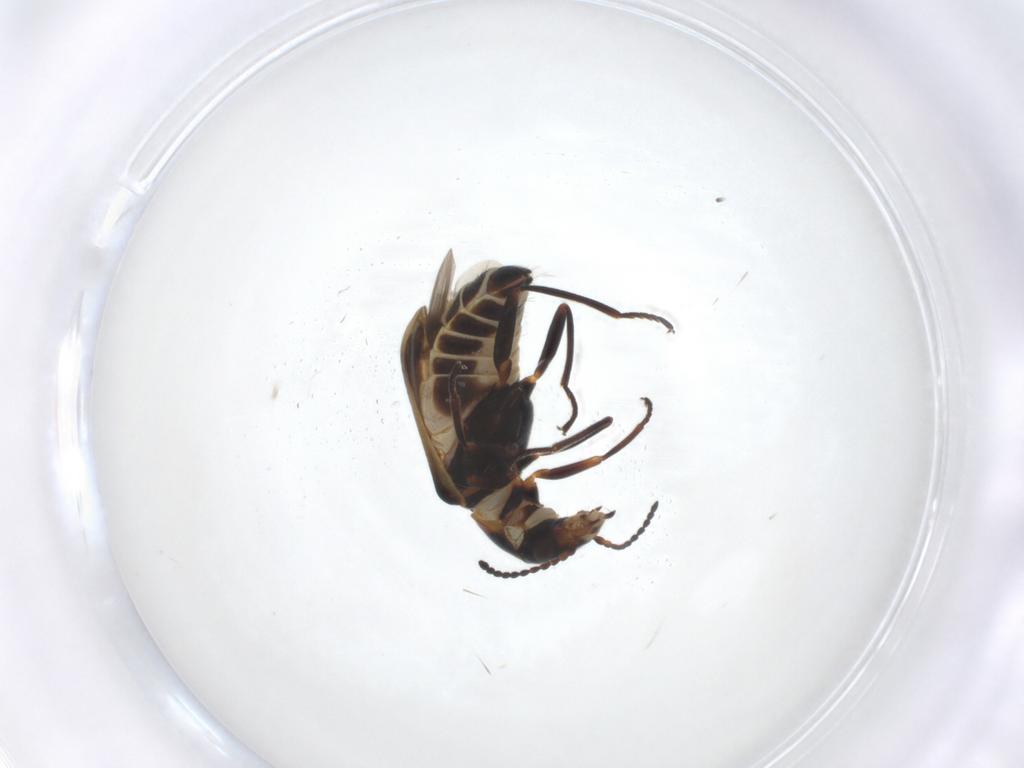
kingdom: Animalia
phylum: Arthropoda
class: Insecta
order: Coleoptera
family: Melyridae
